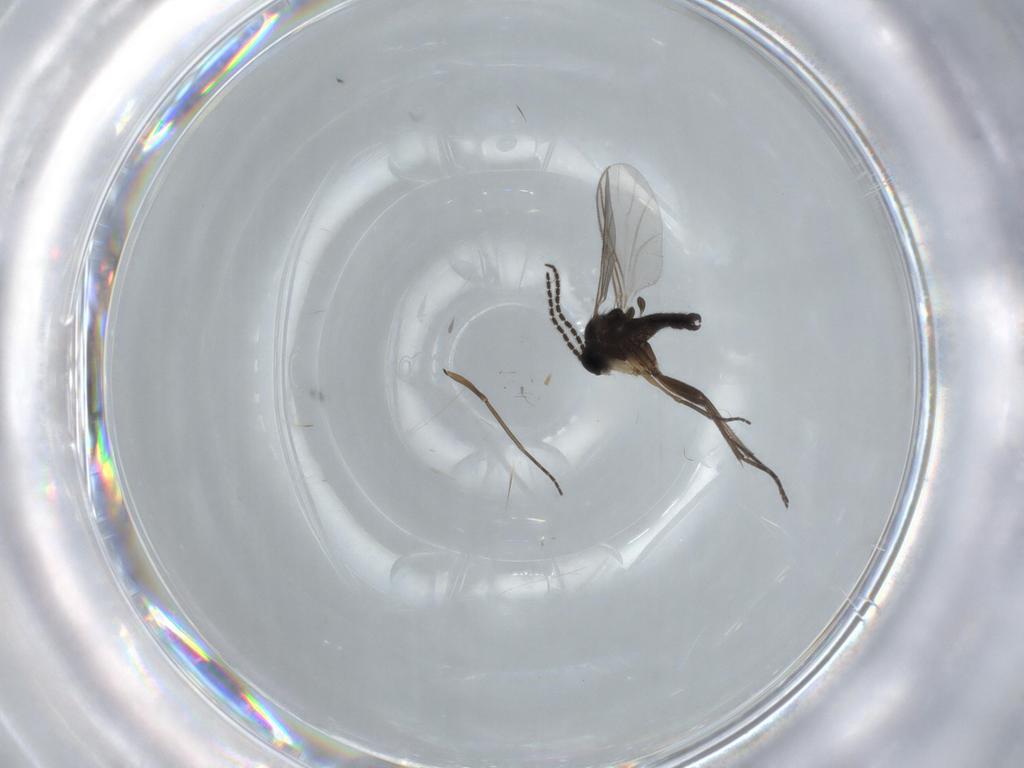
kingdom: Animalia
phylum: Arthropoda
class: Insecta
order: Diptera
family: Sciaridae
